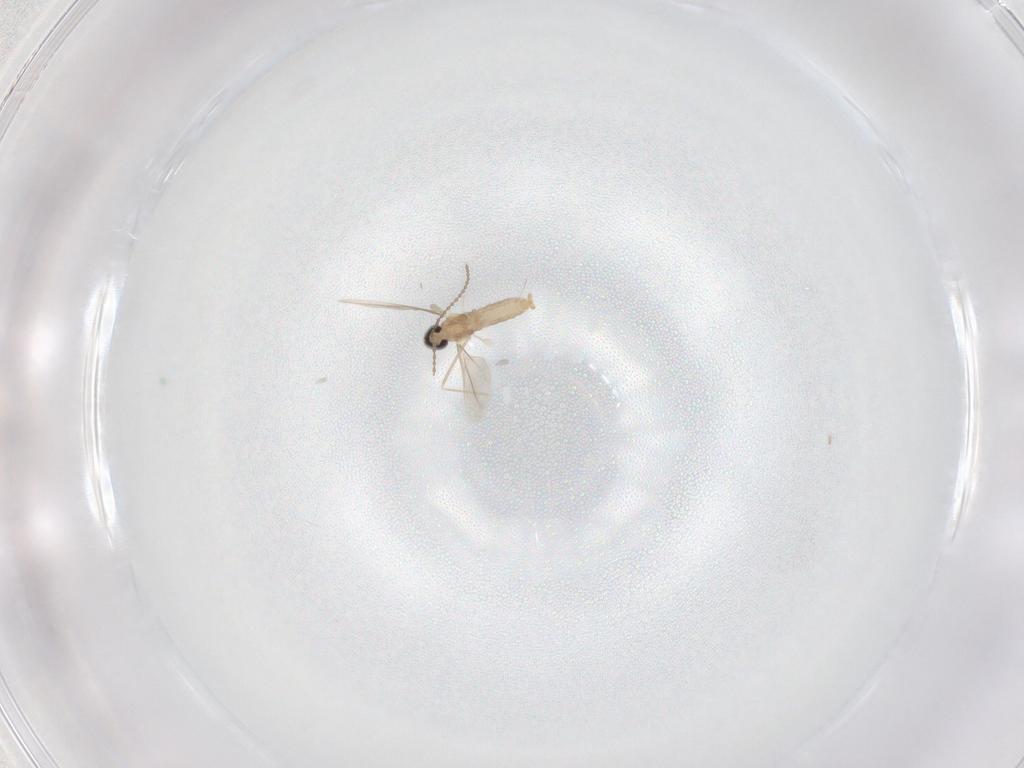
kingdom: Animalia
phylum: Arthropoda
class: Insecta
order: Diptera
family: Cecidomyiidae
